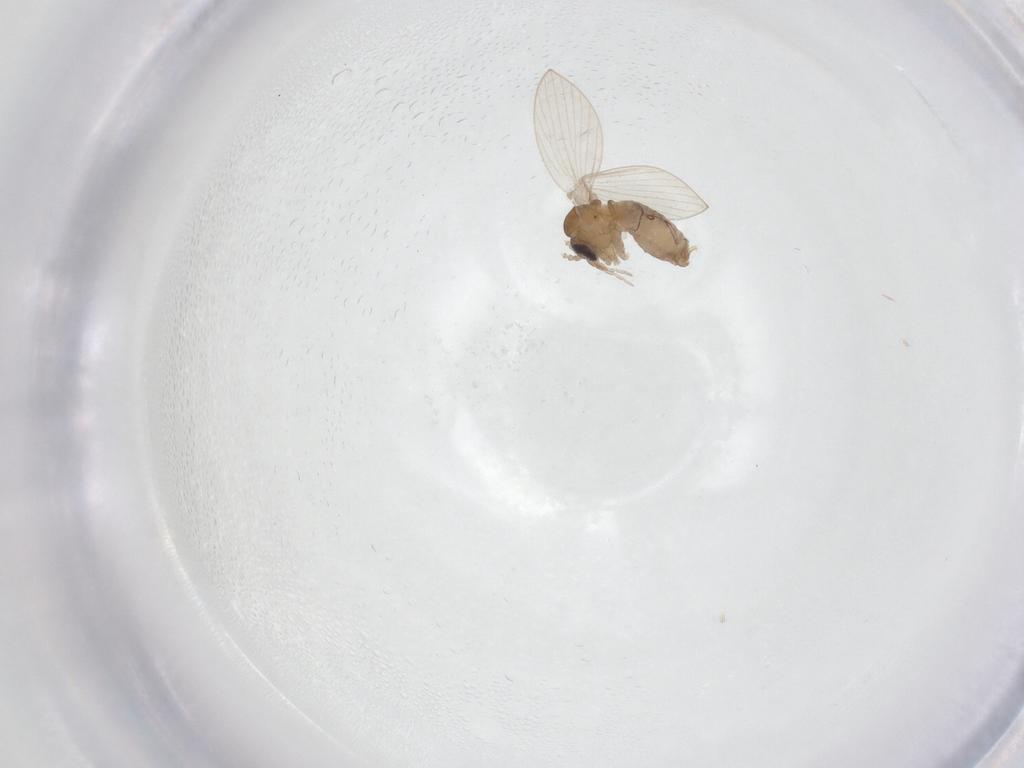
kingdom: Animalia
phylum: Arthropoda
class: Insecta
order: Diptera
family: Psychodidae
